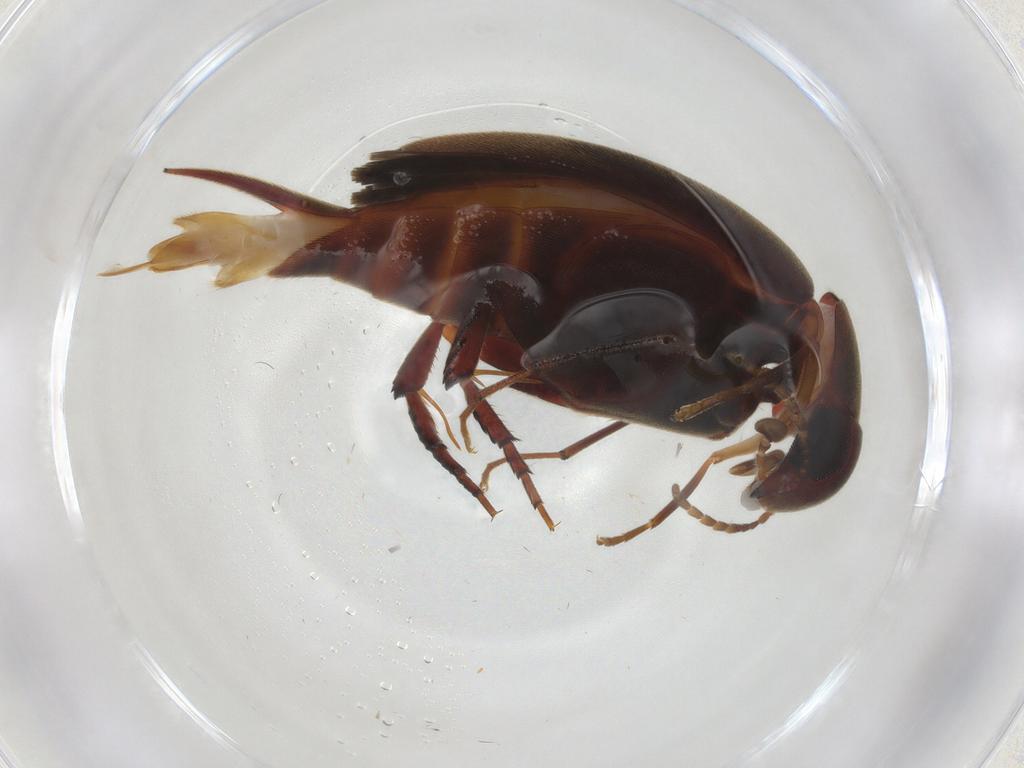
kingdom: Animalia
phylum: Arthropoda
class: Insecta
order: Coleoptera
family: Mordellidae
